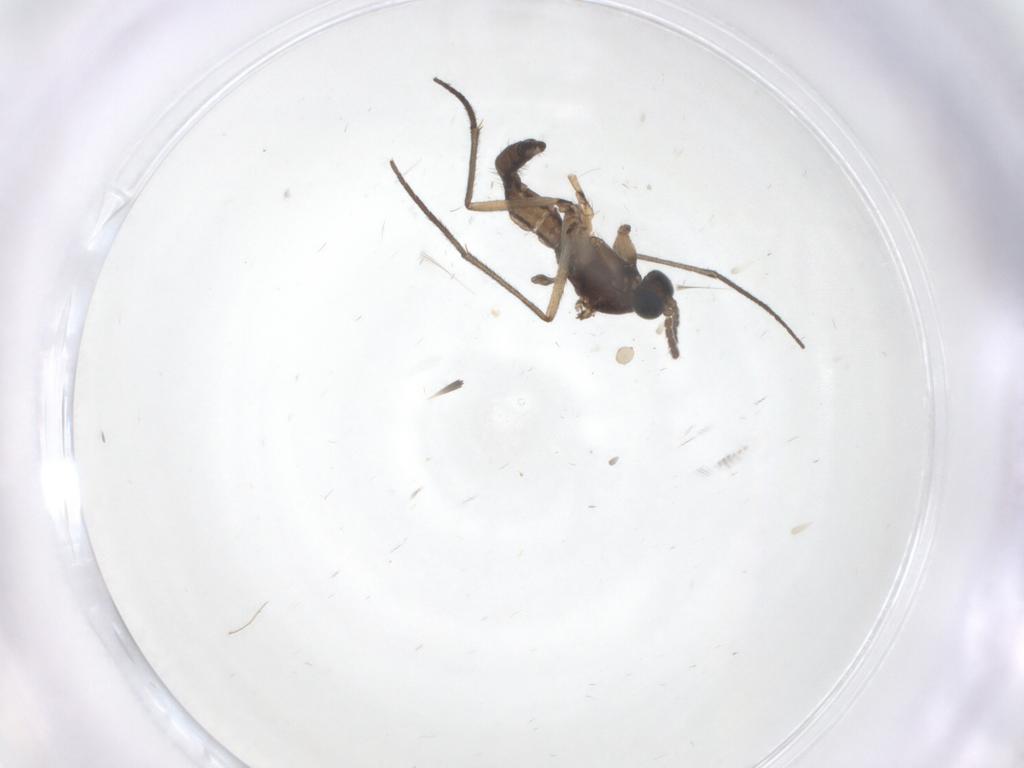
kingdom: Animalia
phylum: Arthropoda
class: Insecta
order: Diptera
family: Sciaridae
